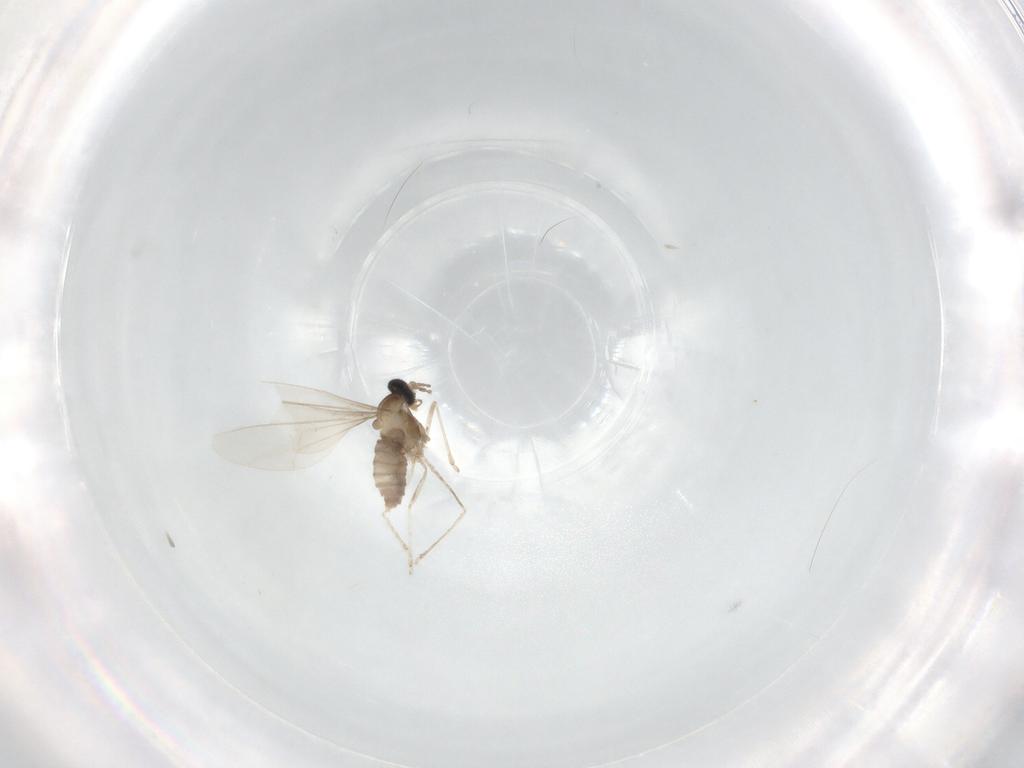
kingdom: Animalia
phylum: Arthropoda
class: Insecta
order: Diptera
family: Cecidomyiidae
